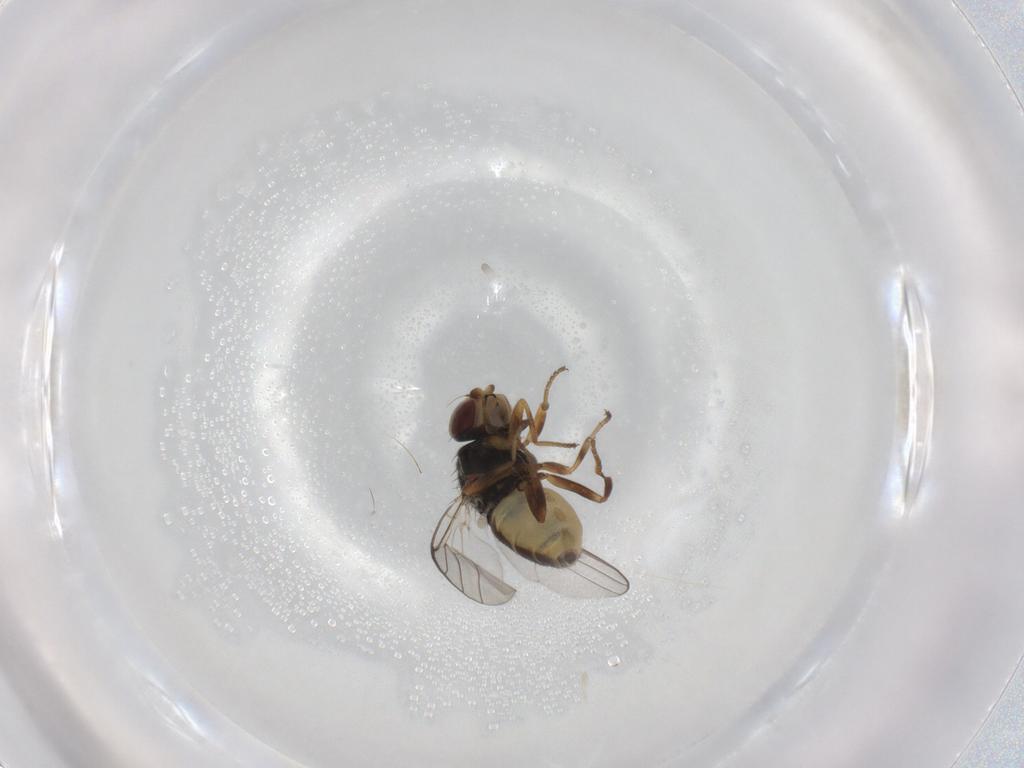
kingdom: Animalia
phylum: Arthropoda
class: Insecta
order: Diptera
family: Chloropidae
